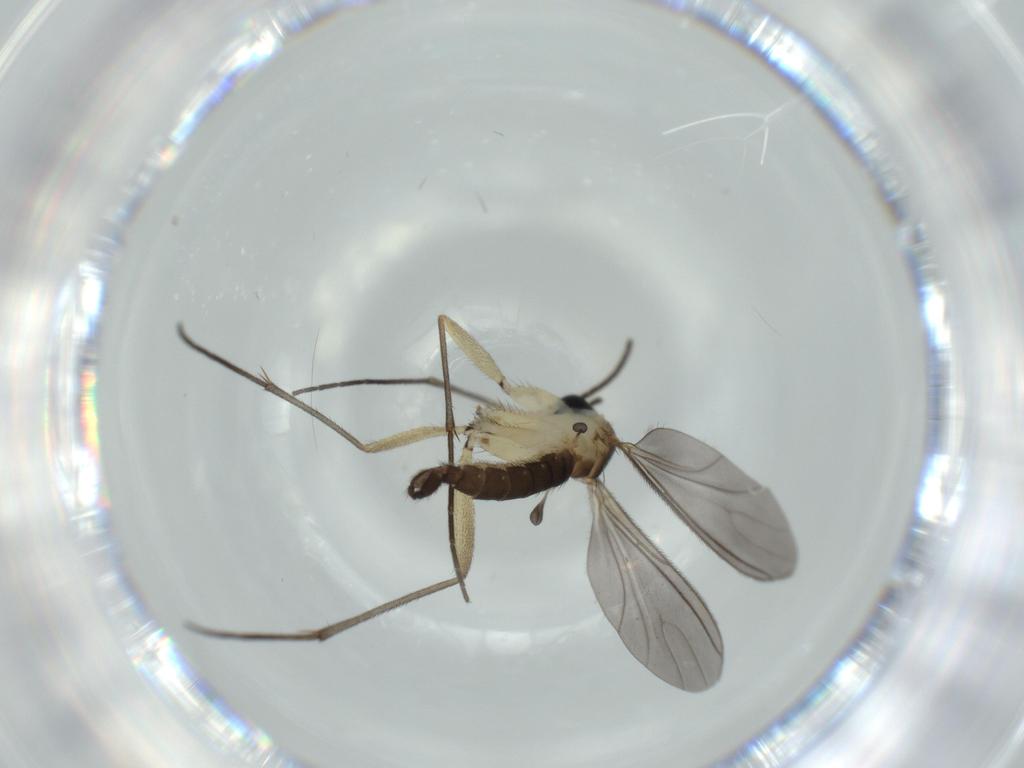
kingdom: Animalia
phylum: Arthropoda
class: Insecta
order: Diptera
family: Sciaridae
